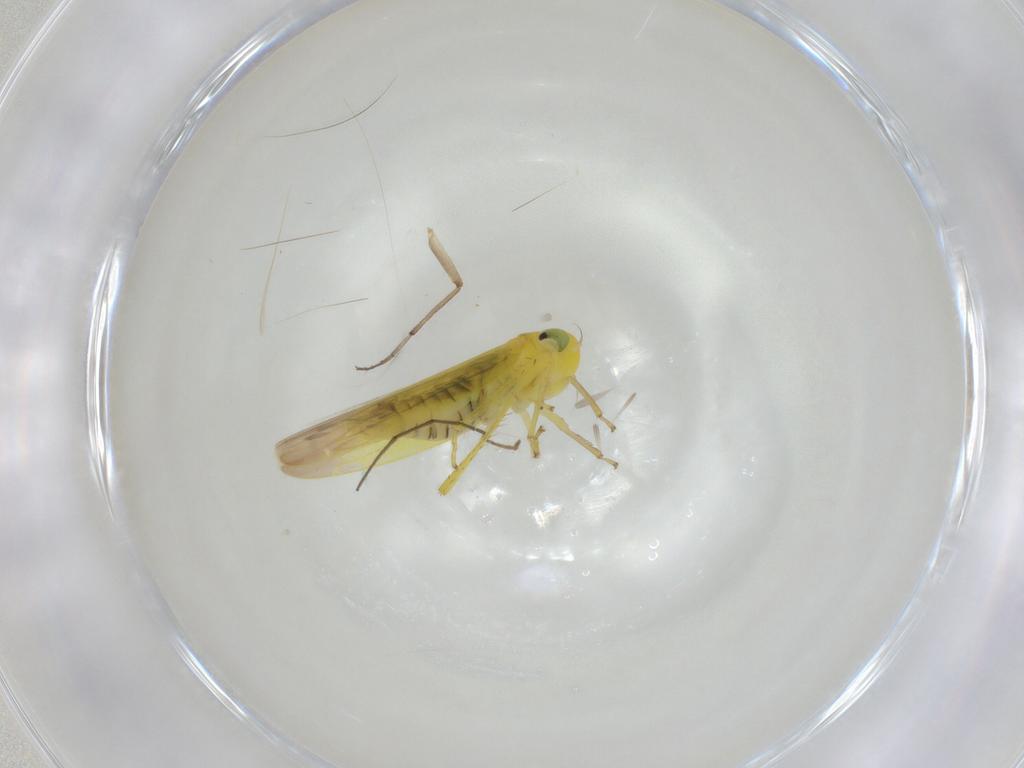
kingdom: Animalia
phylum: Arthropoda
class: Insecta
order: Hemiptera
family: Cicadellidae
